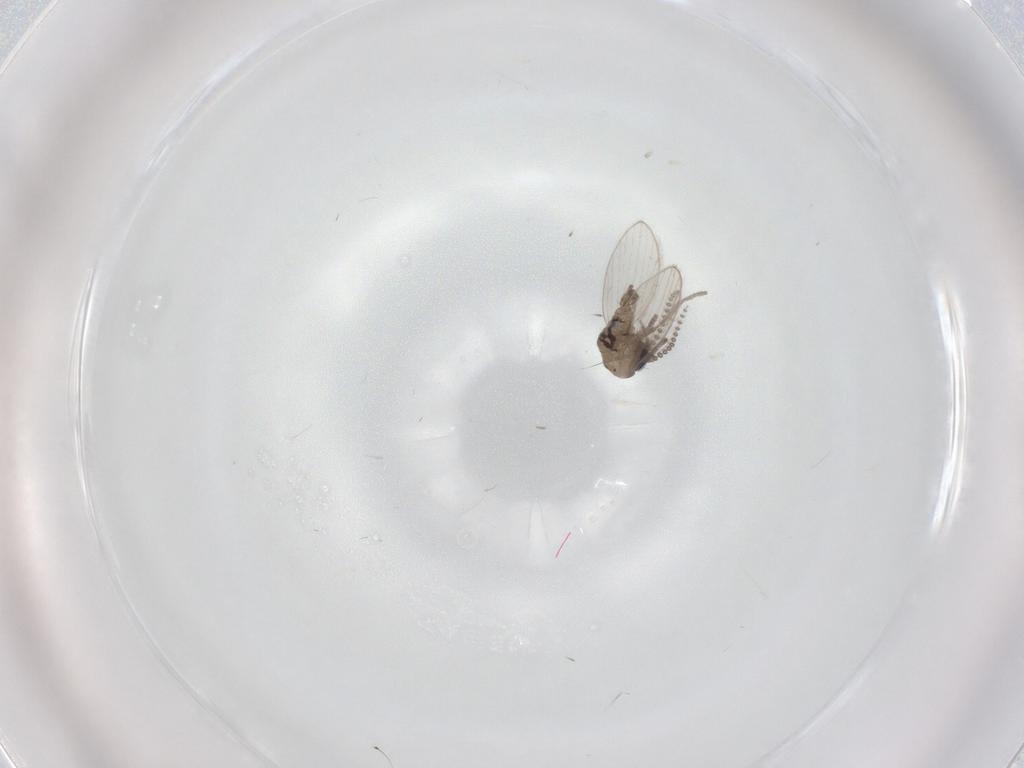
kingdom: Animalia
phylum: Arthropoda
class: Insecta
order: Diptera
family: Psychodidae
